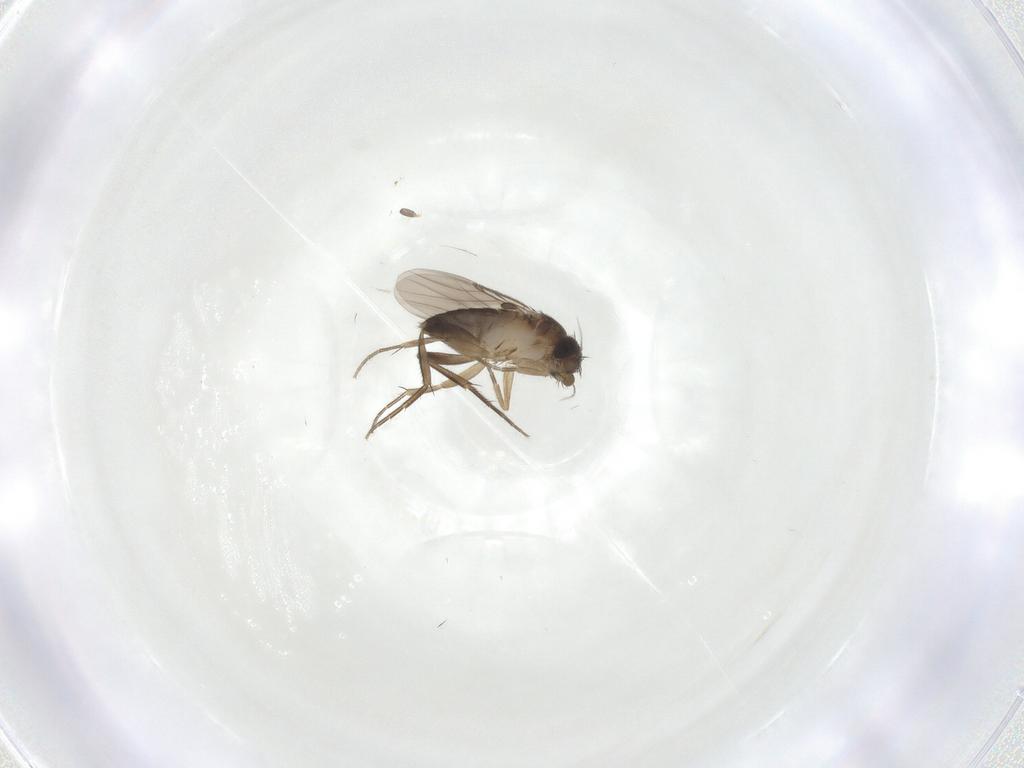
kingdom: Animalia
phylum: Arthropoda
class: Insecta
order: Diptera
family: Phoridae
